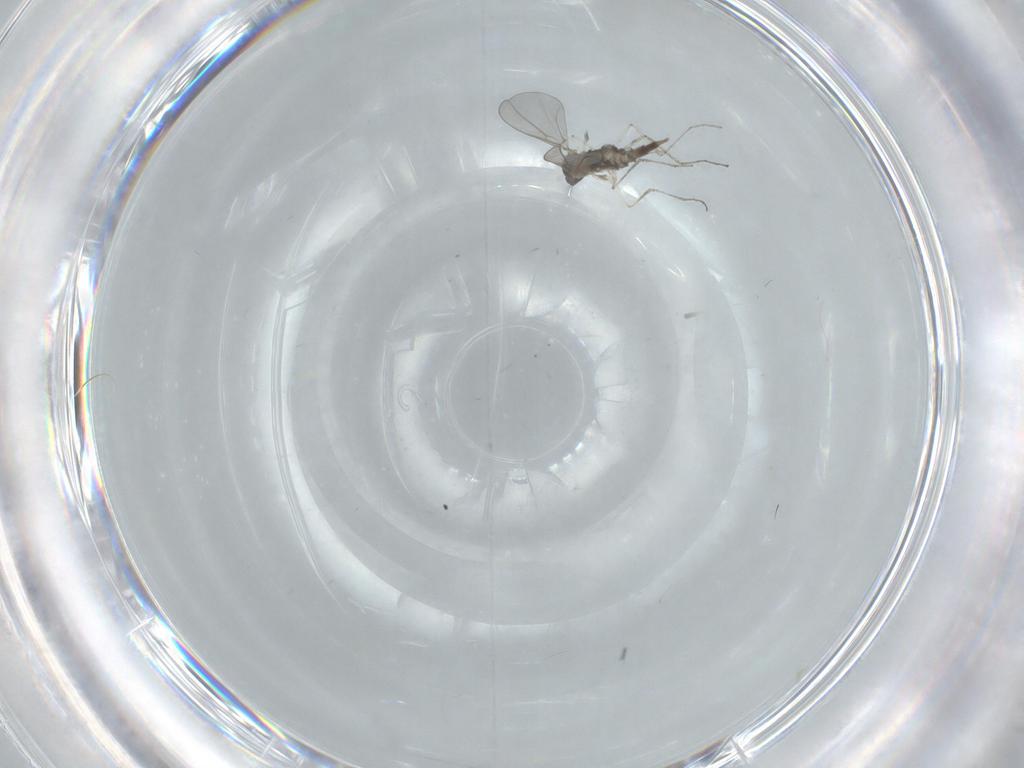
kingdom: Animalia
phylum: Arthropoda
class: Insecta
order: Diptera
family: Cecidomyiidae
